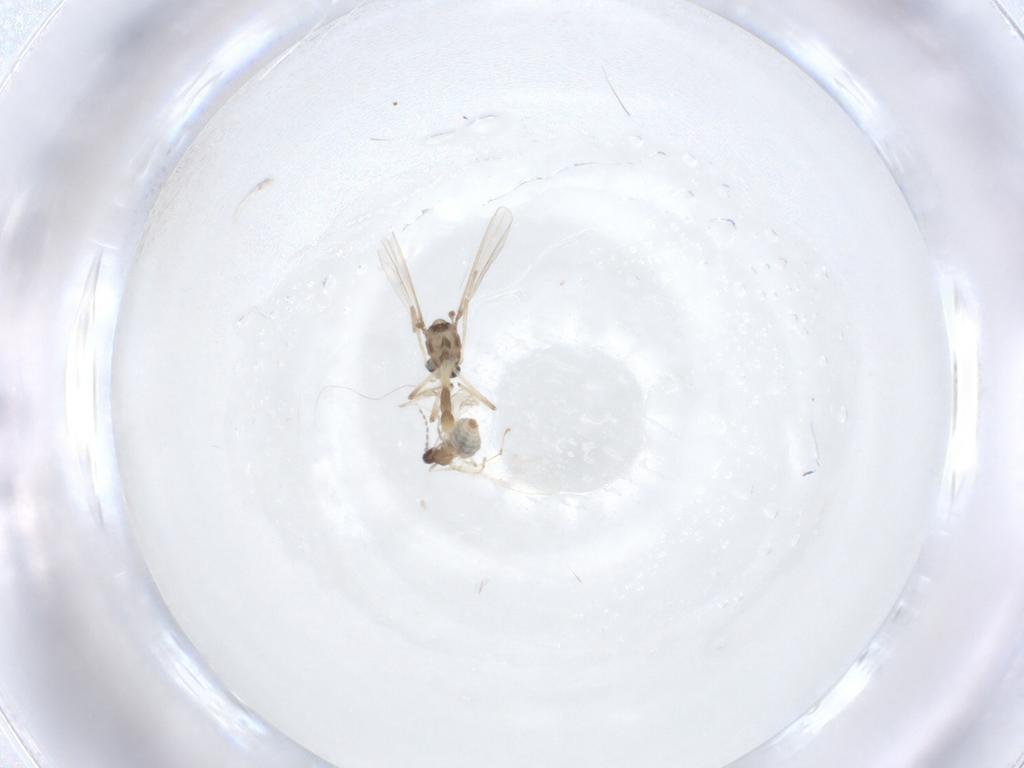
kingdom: Animalia
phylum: Arthropoda
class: Insecta
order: Diptera
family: Chironomidae
